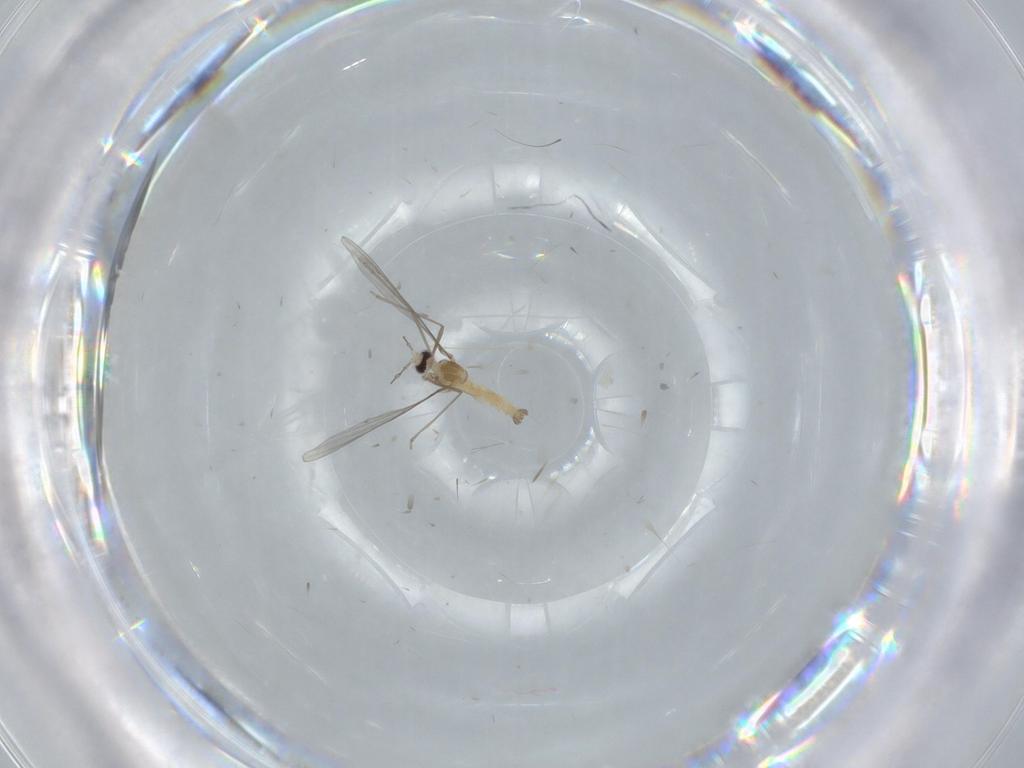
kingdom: Animalia
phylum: Arthropoda
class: Insecta
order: Diptera
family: Cecidomyiidae
